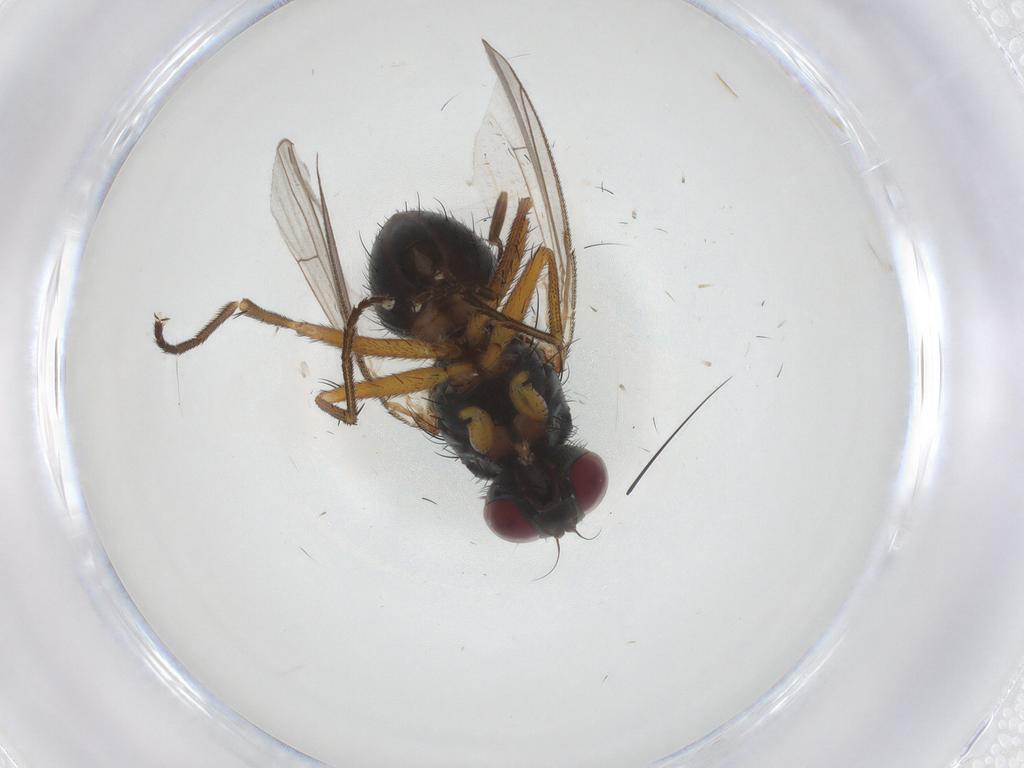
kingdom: Animalia
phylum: Arthropoda
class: Insecta
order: Diptera
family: Muscidae
